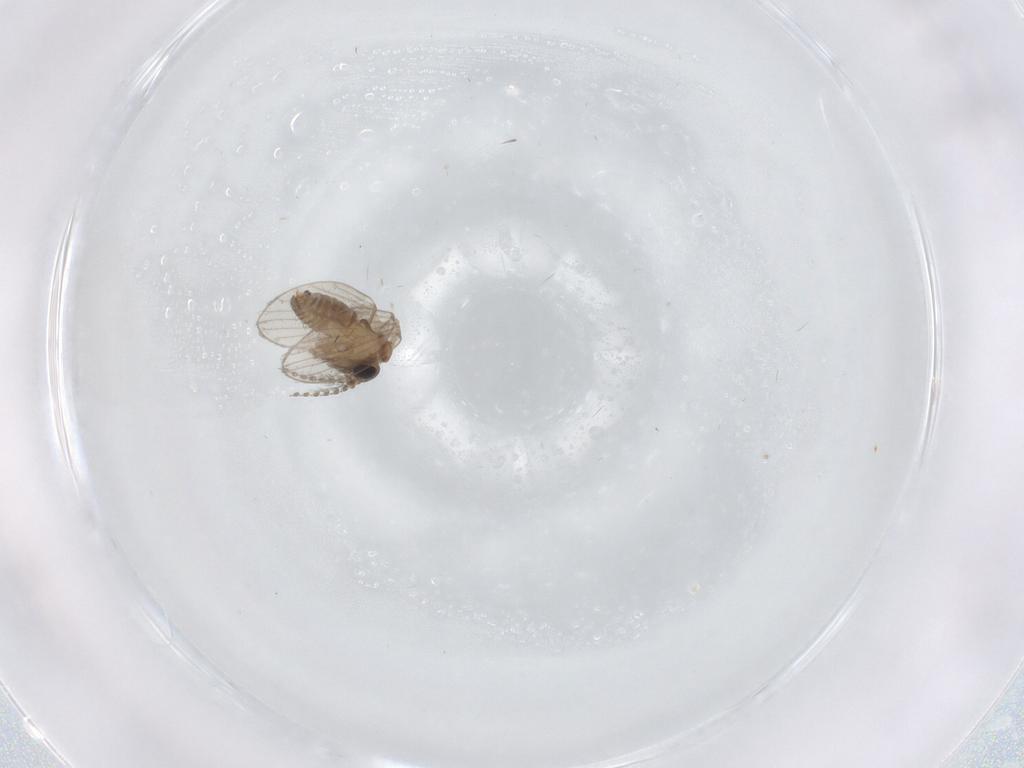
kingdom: Animalia
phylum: Arthropoda
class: Insecta
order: Diptera
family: Psychodidae
